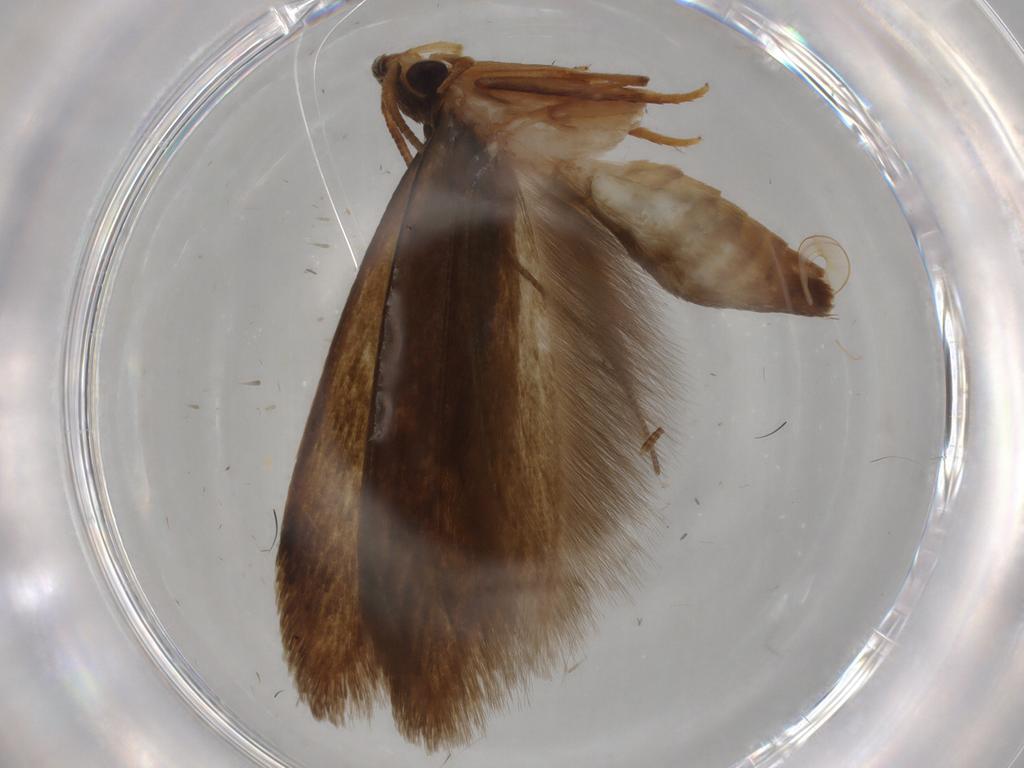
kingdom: Animalia
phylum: Arthropoda
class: Insecta
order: Lepidoptera
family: Tineidae
